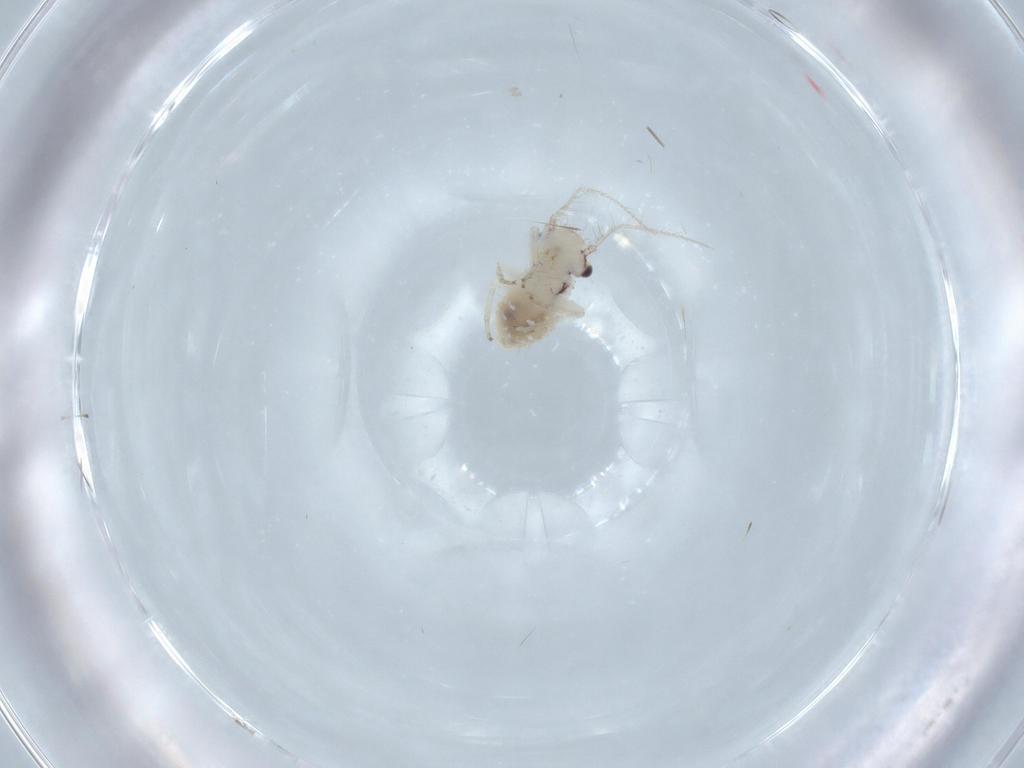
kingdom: Animalia
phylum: Arthropoda
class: Insecta
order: Psocodea
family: Pseudocaeciliidae
